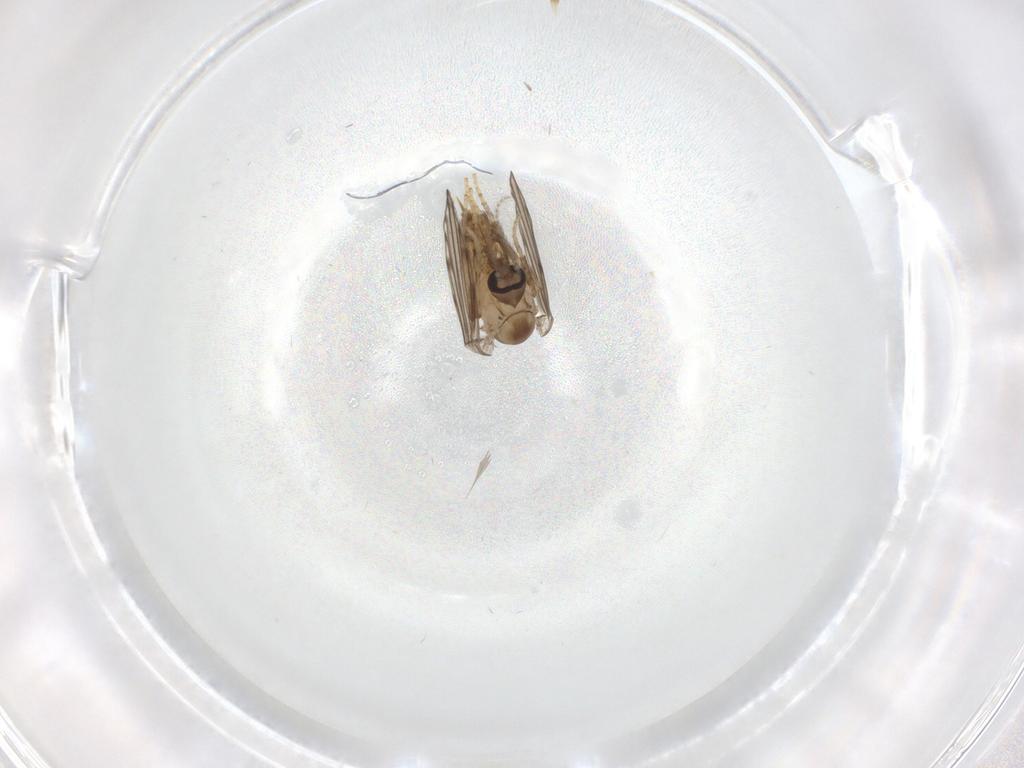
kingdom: Animalia
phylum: Arthropoda
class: Insecta
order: Diptera
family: Psychodidae
